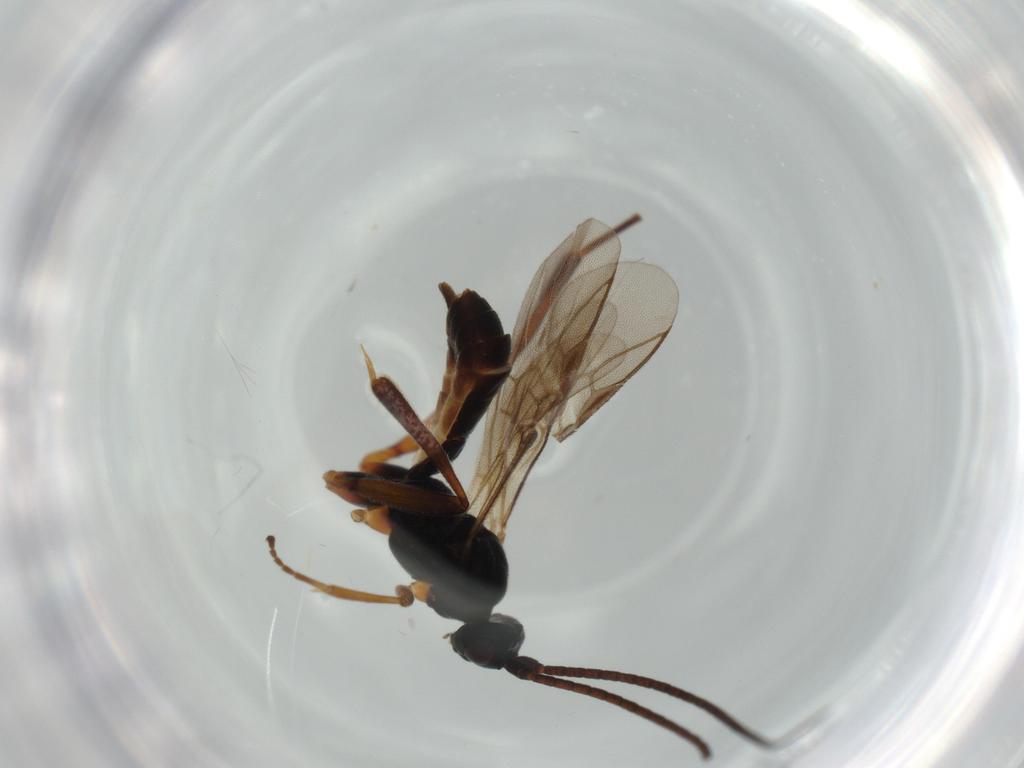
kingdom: Animalia
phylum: Arthropoda
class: Insecta
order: Hymenoptera
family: Braconidae
